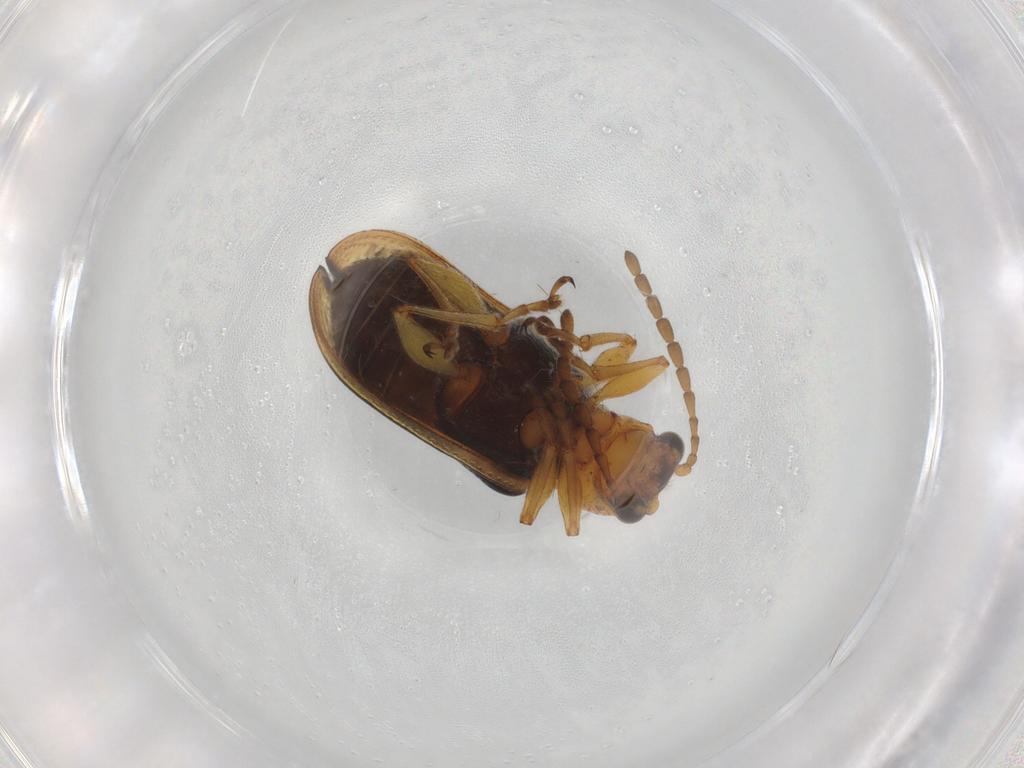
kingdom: Animalia
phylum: Arthropoda
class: Insecta
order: Coleoptera
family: Chrysomelidae
